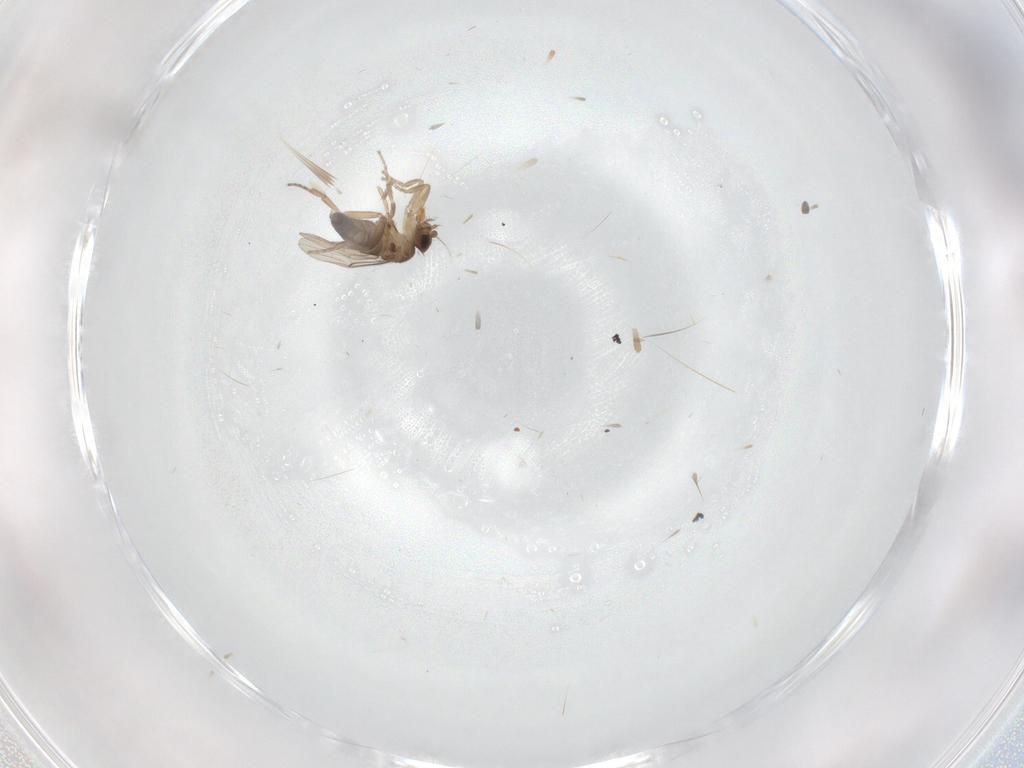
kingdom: Animalia
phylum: Arthropoda
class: Insecta
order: Diptera
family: Phoridae
